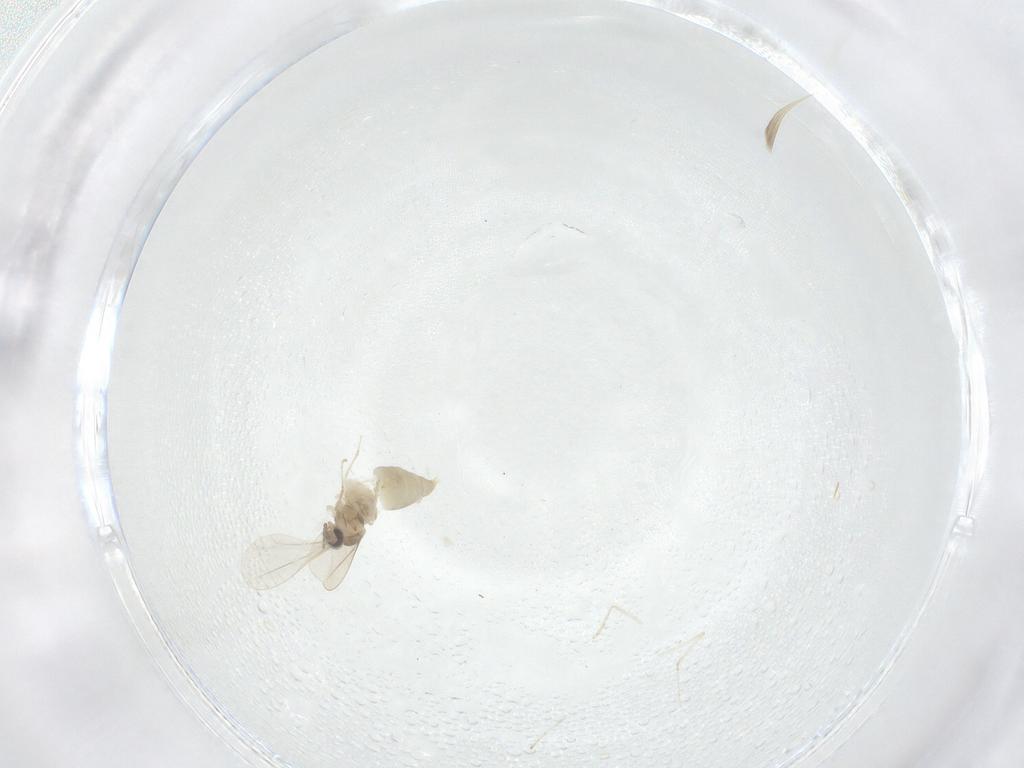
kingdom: Animalia
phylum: Arthropoda
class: Insecta
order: Diptera
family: Cecidomyiidae
